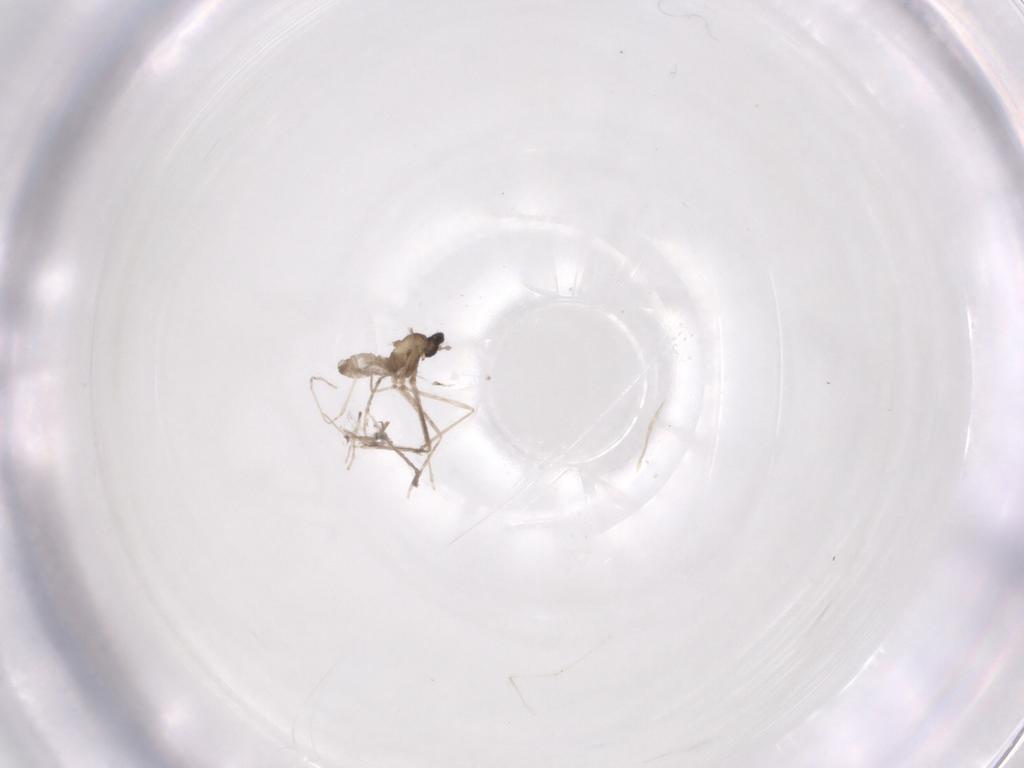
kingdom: Animalia
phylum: Arthropoda
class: Insecta
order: Diptera
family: Cecidomyiidae
